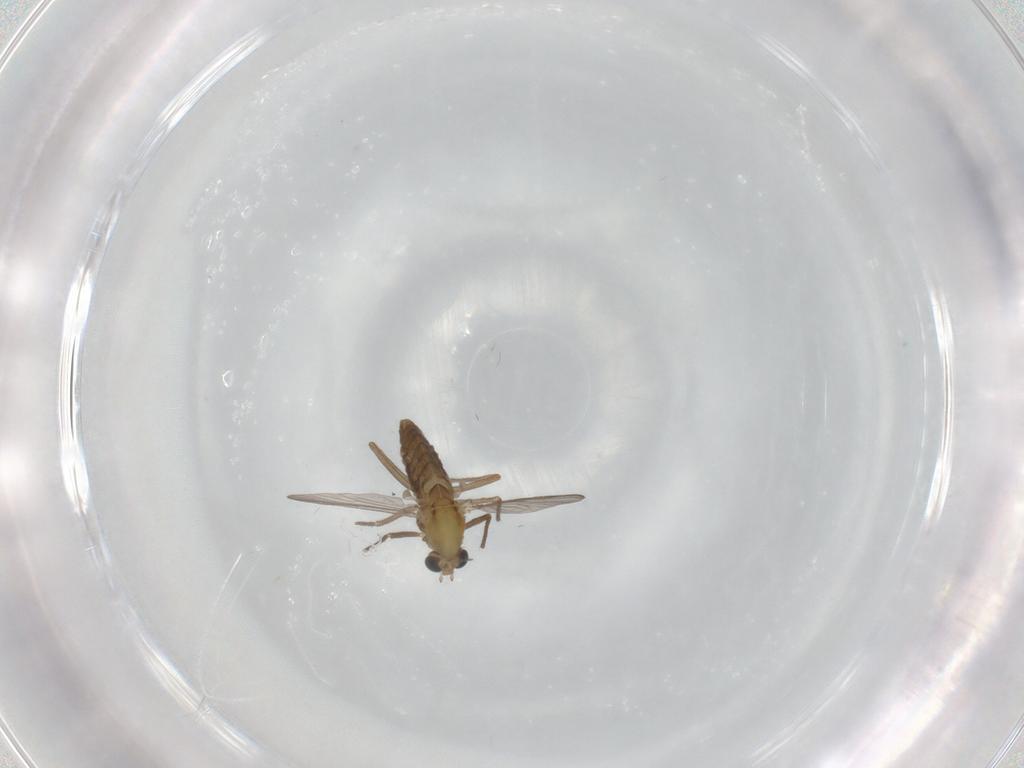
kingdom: Animalia
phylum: Arthropoda
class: Insecta
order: Diptera
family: Chironomidae
